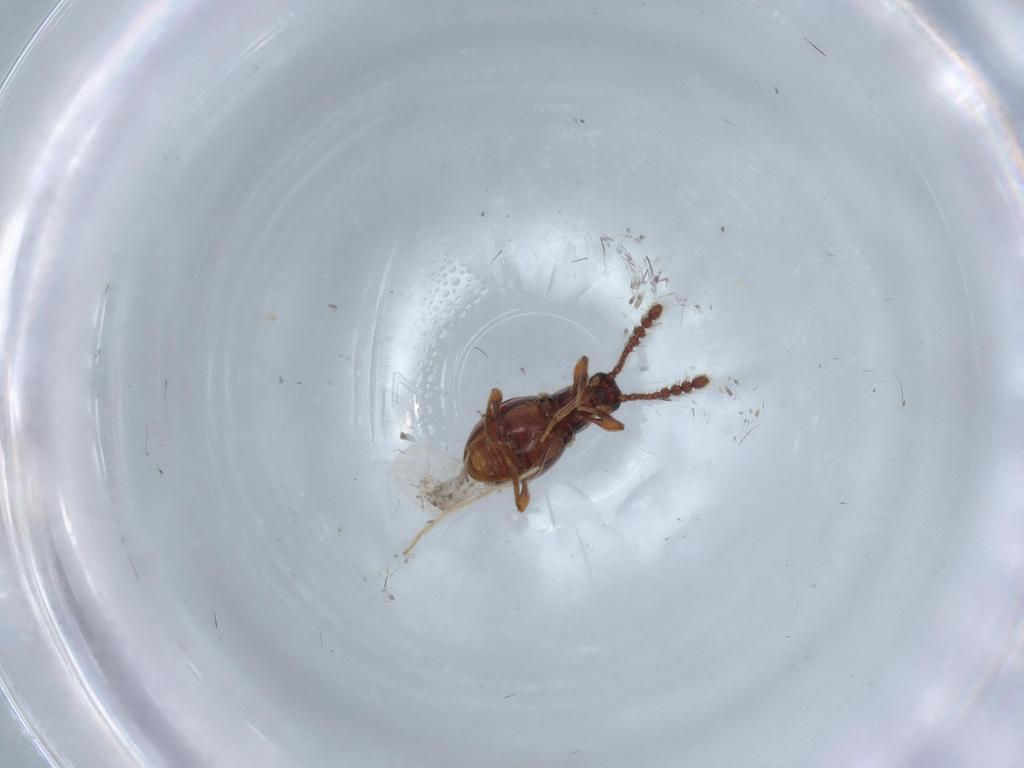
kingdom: Animalia
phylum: Arthropoda
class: Insecta
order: Coleoptera
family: Staphylinidae
